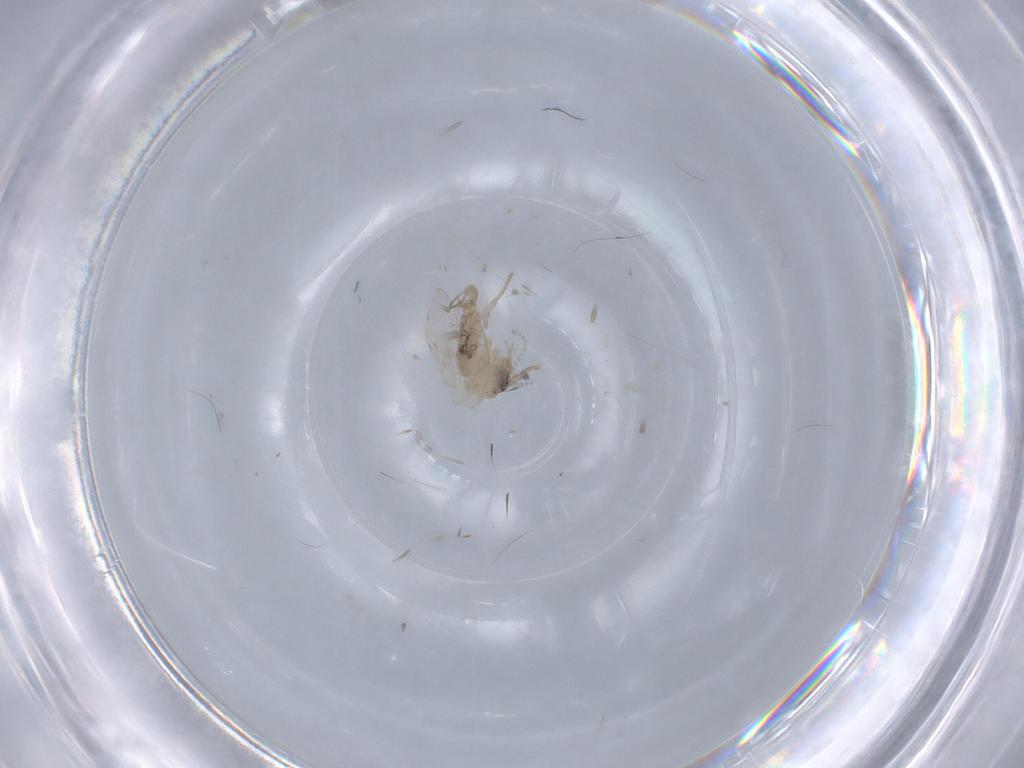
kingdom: Animalia
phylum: Arthropoda
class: Insecta
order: Diptera
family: Psychodidae
